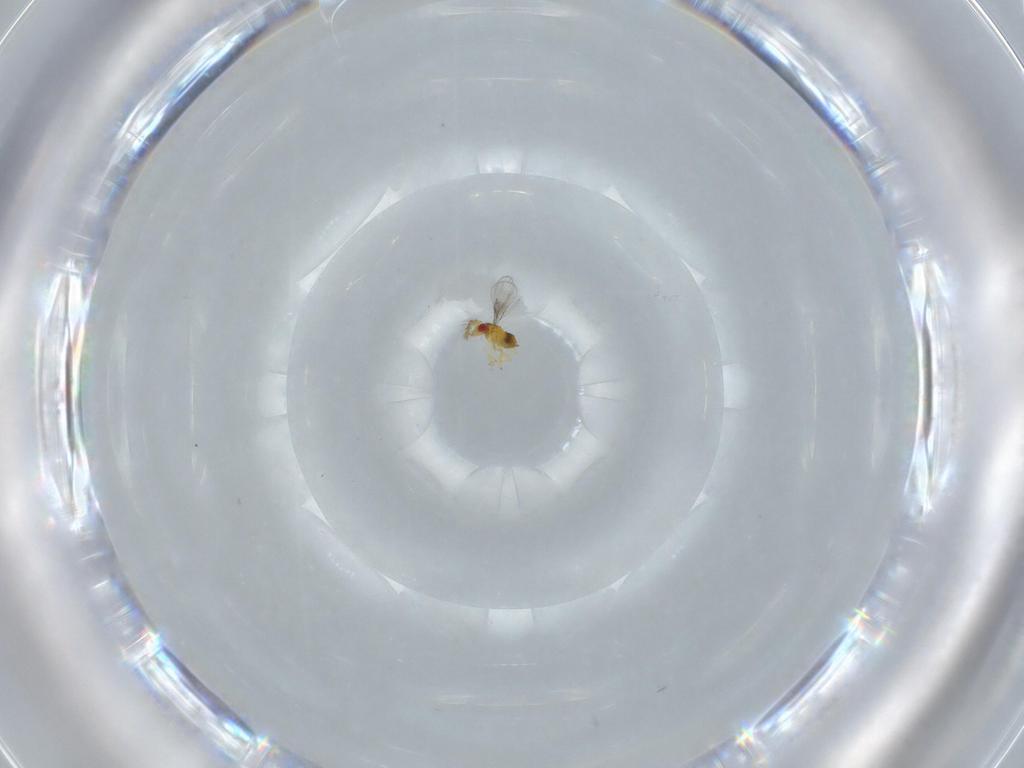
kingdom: Animalia
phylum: Arthropoda
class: Insecta
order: Hymenoptera
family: Trichogrammatidae
